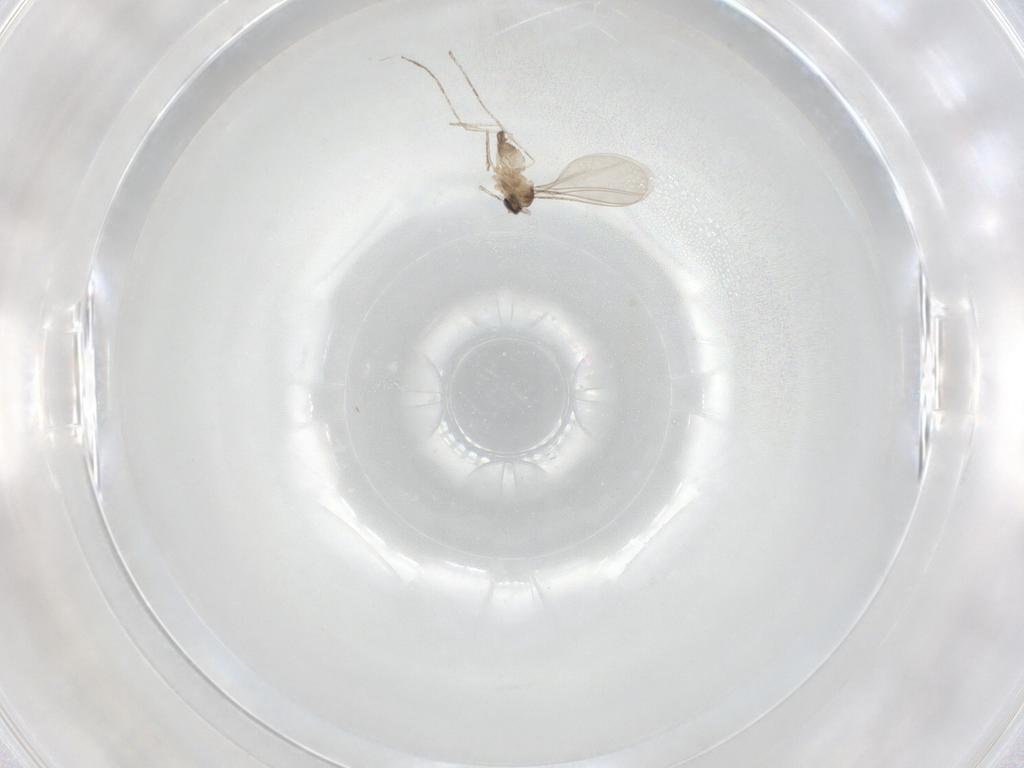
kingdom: Animalia
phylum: Arthropoda
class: Insecta
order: Diptera
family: Cecidomyiidae
